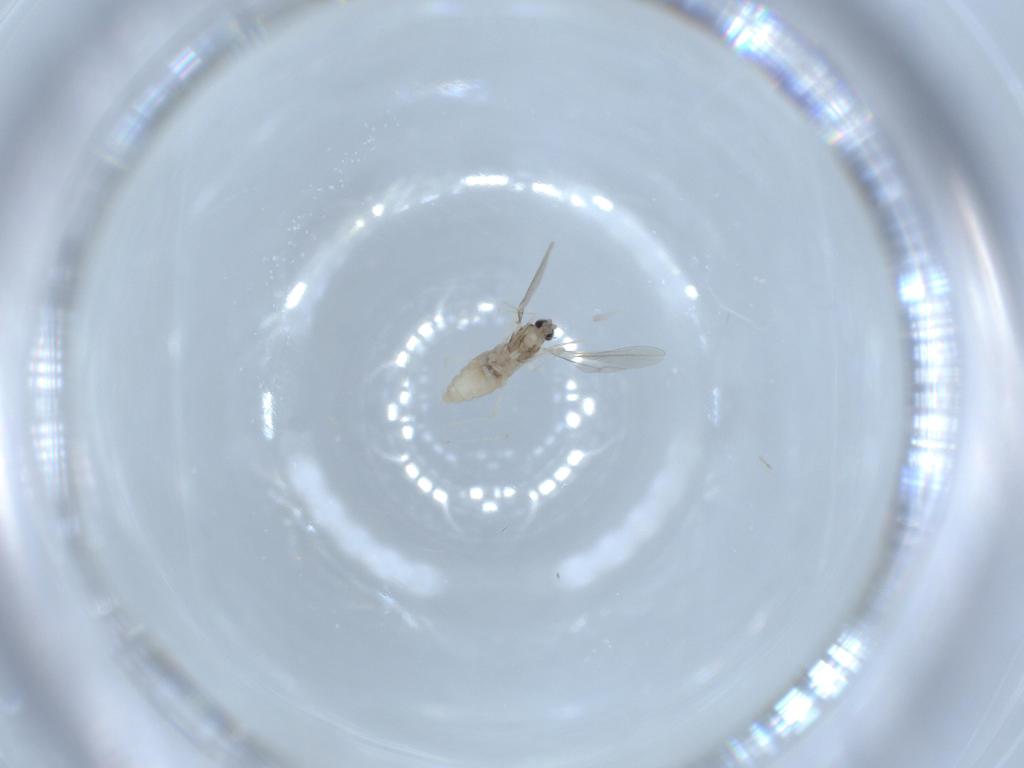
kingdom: Animalia
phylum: Arthropoda
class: Insecta
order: Diptera
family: Cecidomyiidae
